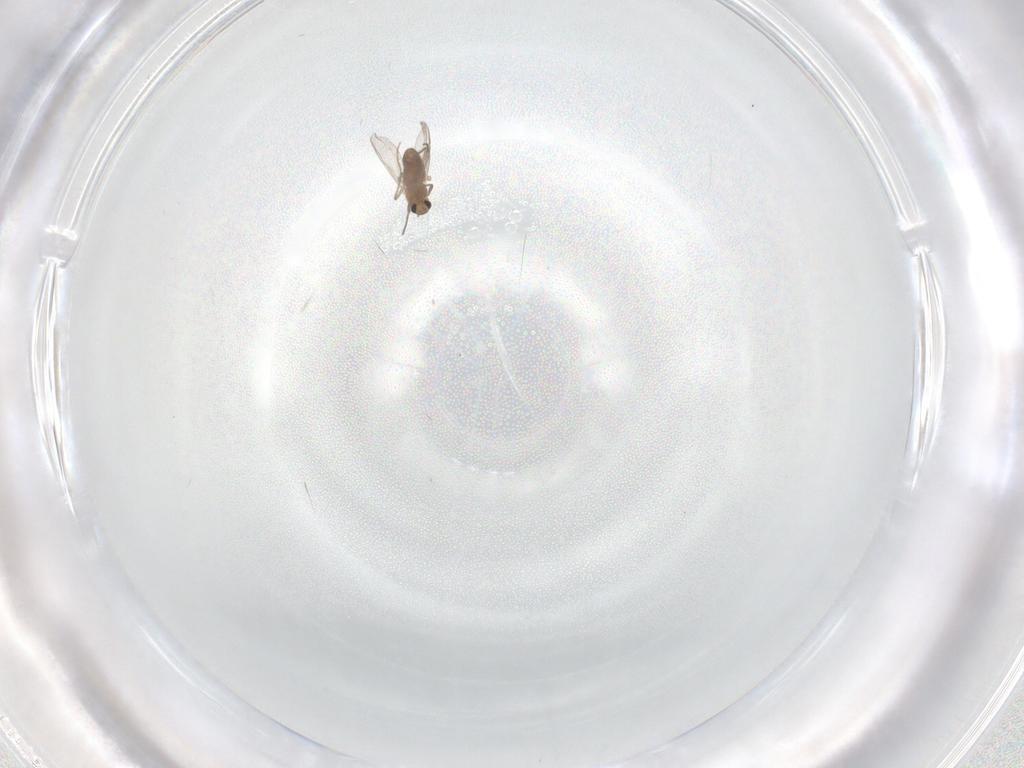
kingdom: Animalia
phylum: Arthropoda
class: Insecta
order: Diptera
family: Chironomidae
